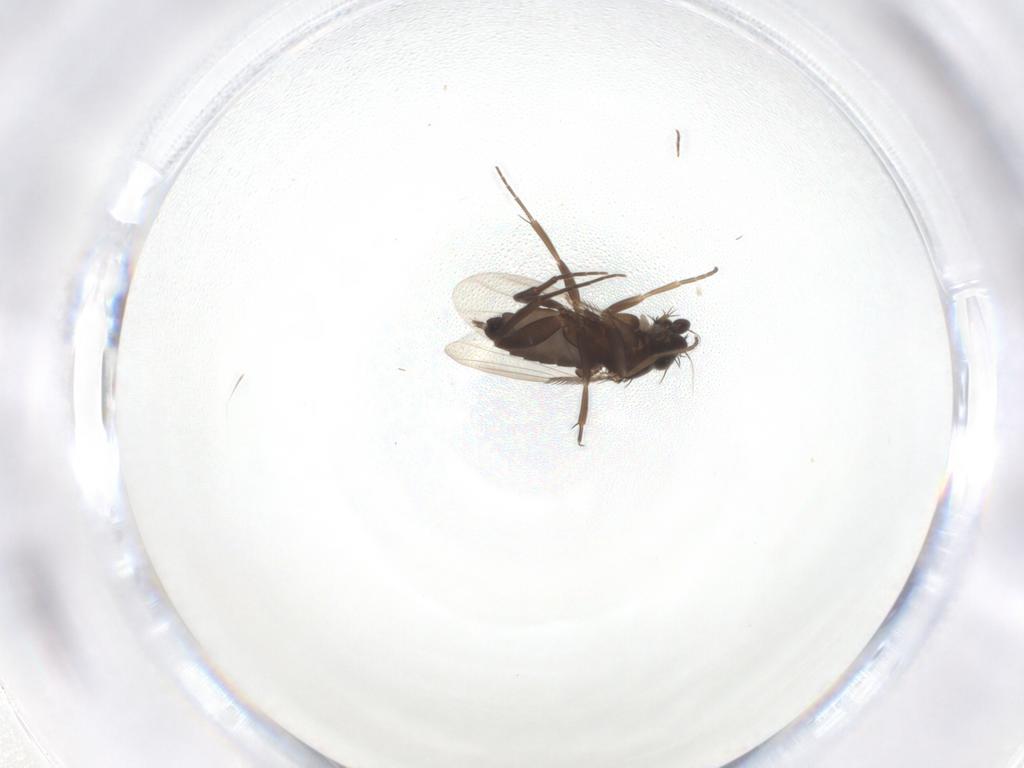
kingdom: Animalia
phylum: Arthropoda
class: Insecta
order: Diptera
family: Phoridae
